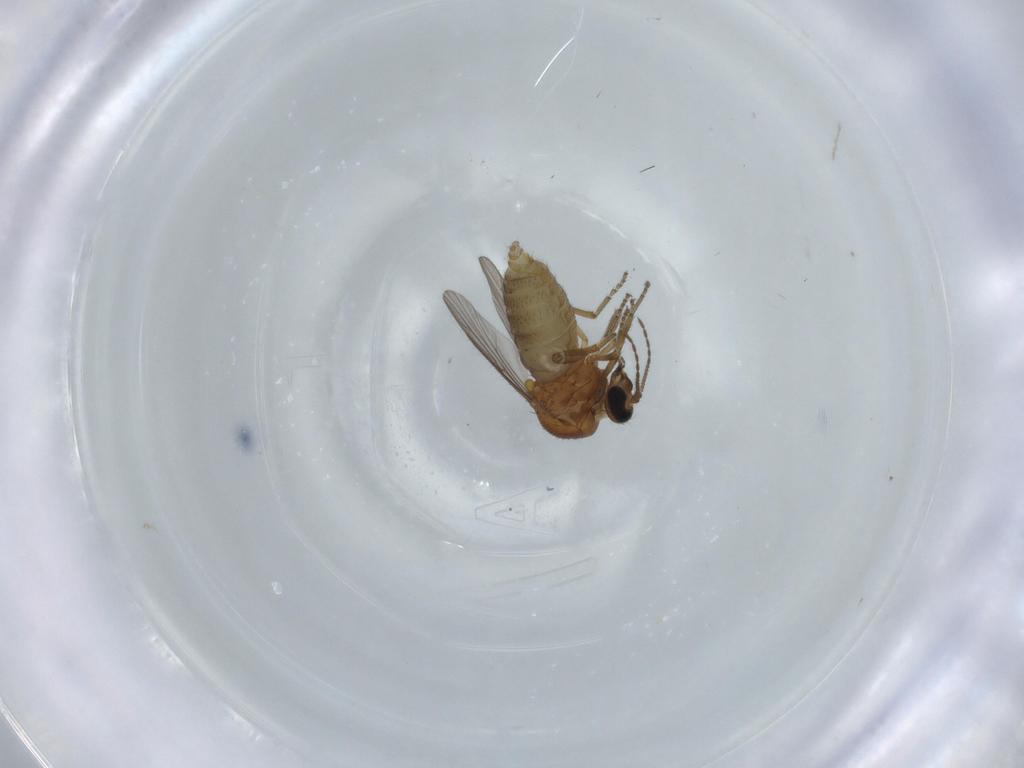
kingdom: Animalia
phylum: Arthropoda
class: Insecta
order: Diptera
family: Ceratopogonidae
